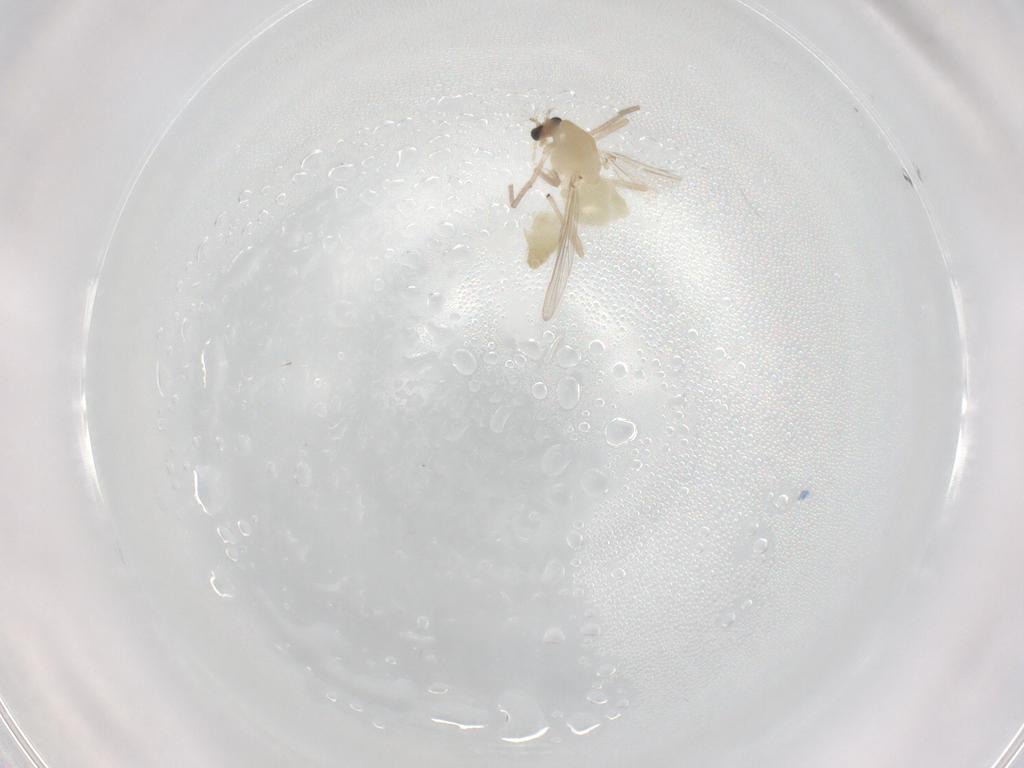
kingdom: Animalia
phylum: Arthropoda
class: Insecta
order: Diptera
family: Chironomidae
